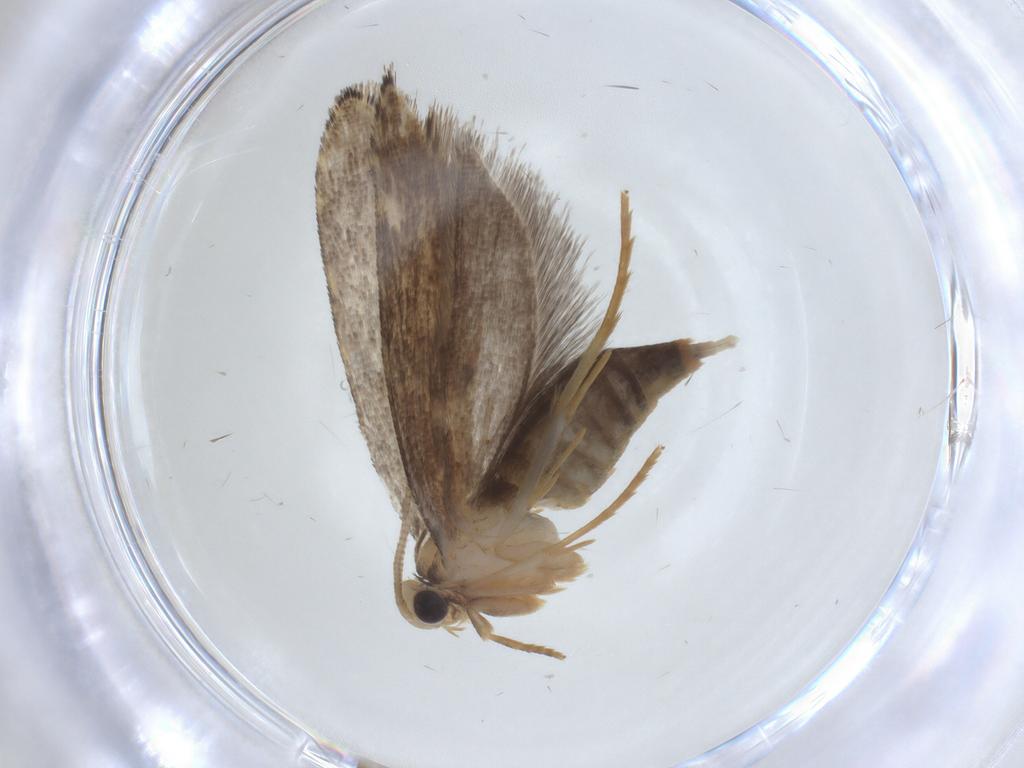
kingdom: Animalia
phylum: Arthropoda
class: Insecta
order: Lepidoptera
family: Tineidae
